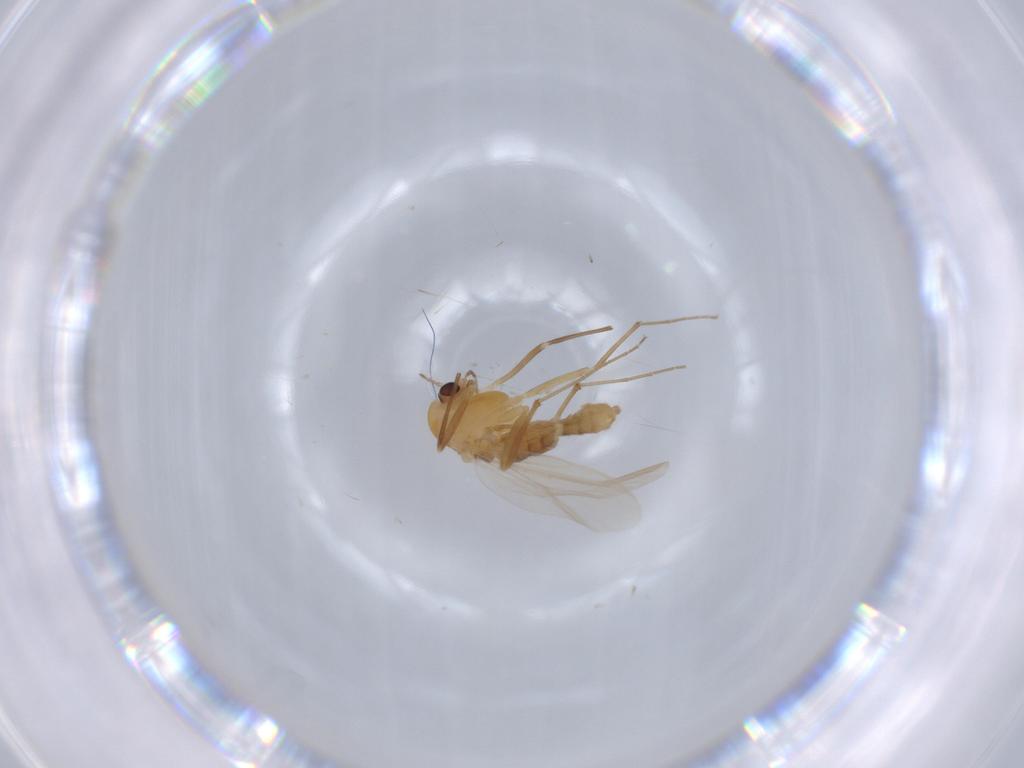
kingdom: Animalia
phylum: Arthropoda
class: Insecta
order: Diptera
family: Chironomidae
